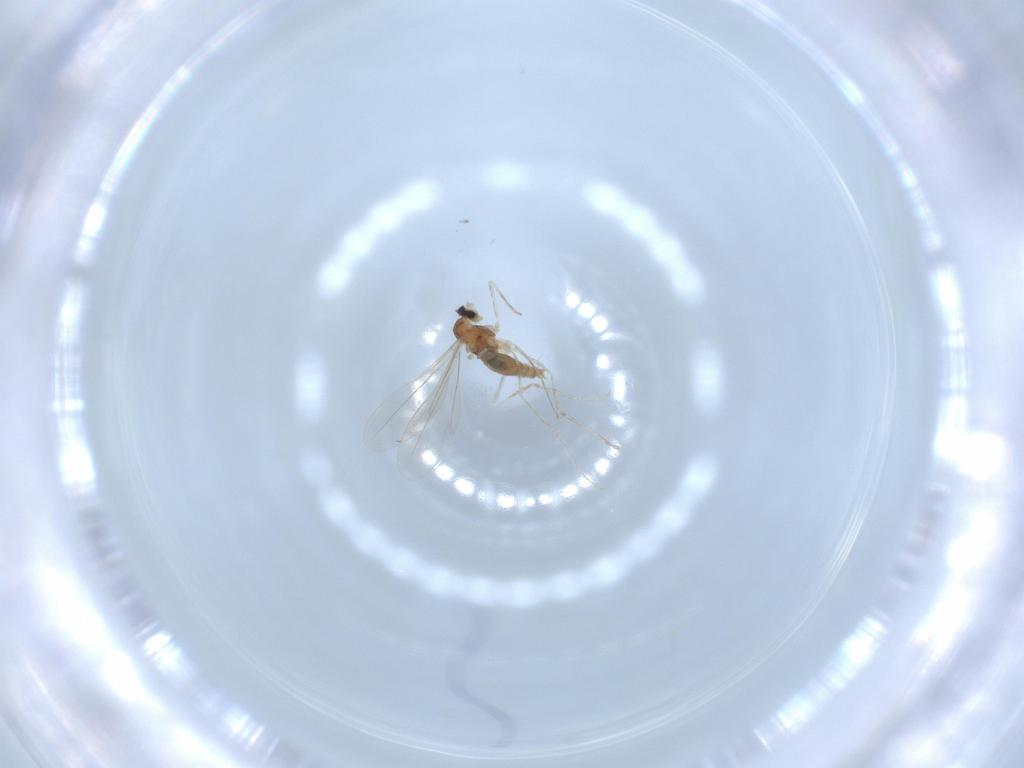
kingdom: Animalia
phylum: Arthropoda
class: Insecta
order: Diptera
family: Cecidomyiidae
